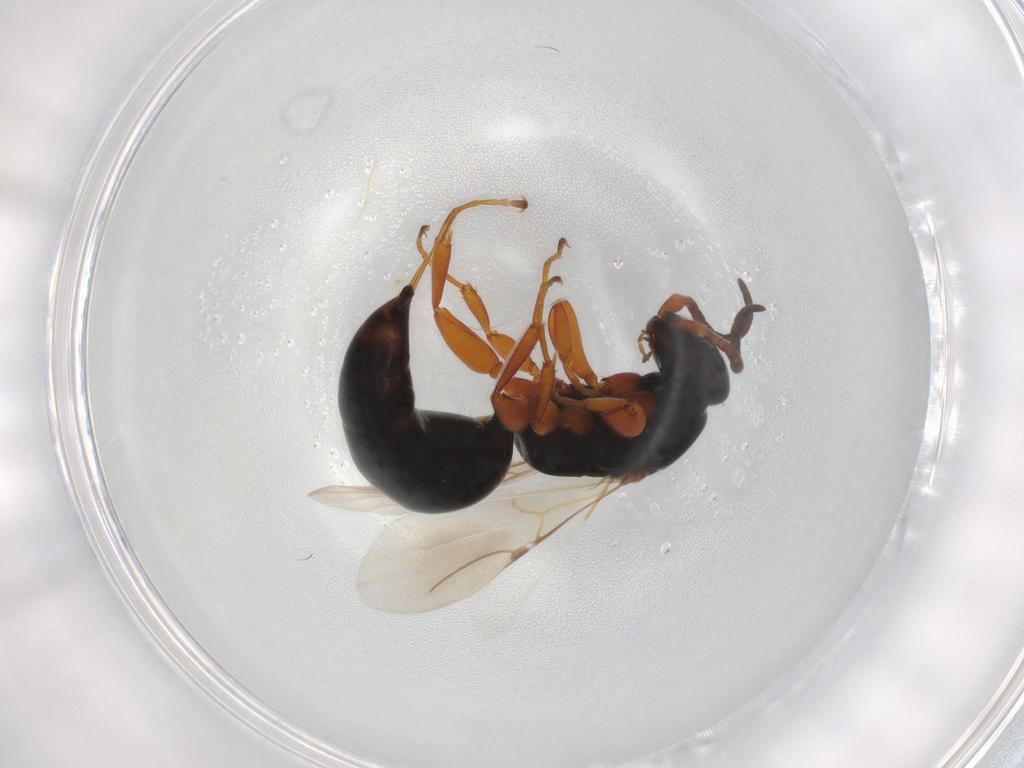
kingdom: Animalia
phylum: Arthropoda
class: Insecta
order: Hymenoptera
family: Bethylidae
